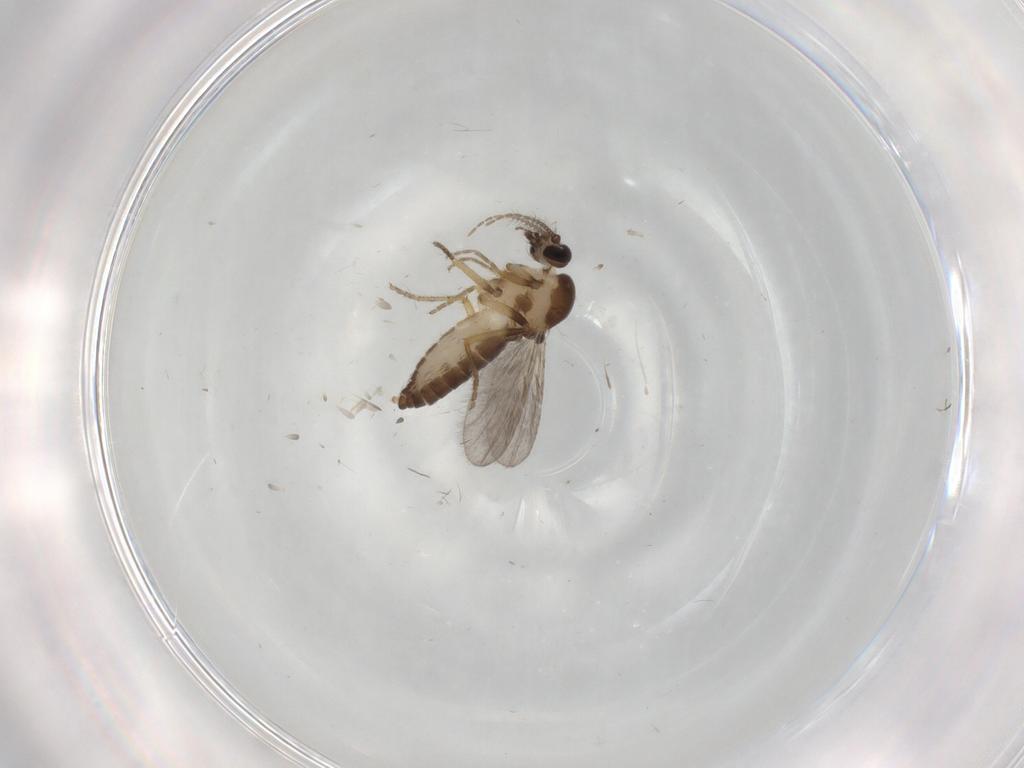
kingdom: Animalia
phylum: Arthropoda
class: Insecta
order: Diptera
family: Ceratopogonidae
